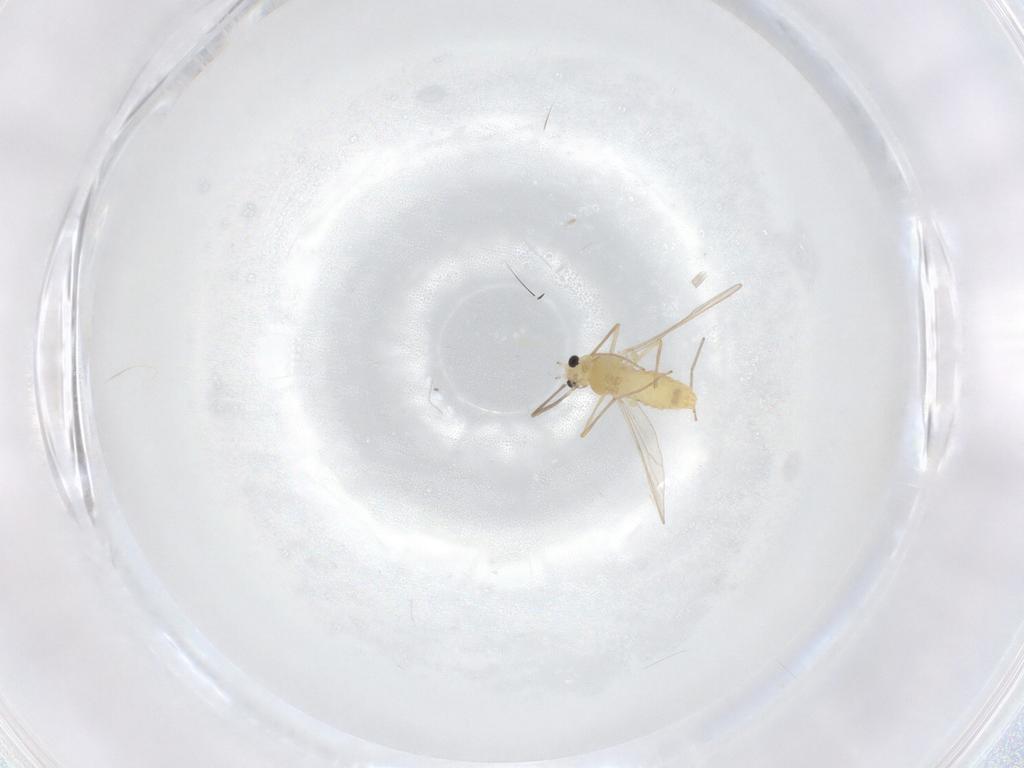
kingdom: Animalia
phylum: Arthropoda
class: Insecta
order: Diptera
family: Chironomidae
